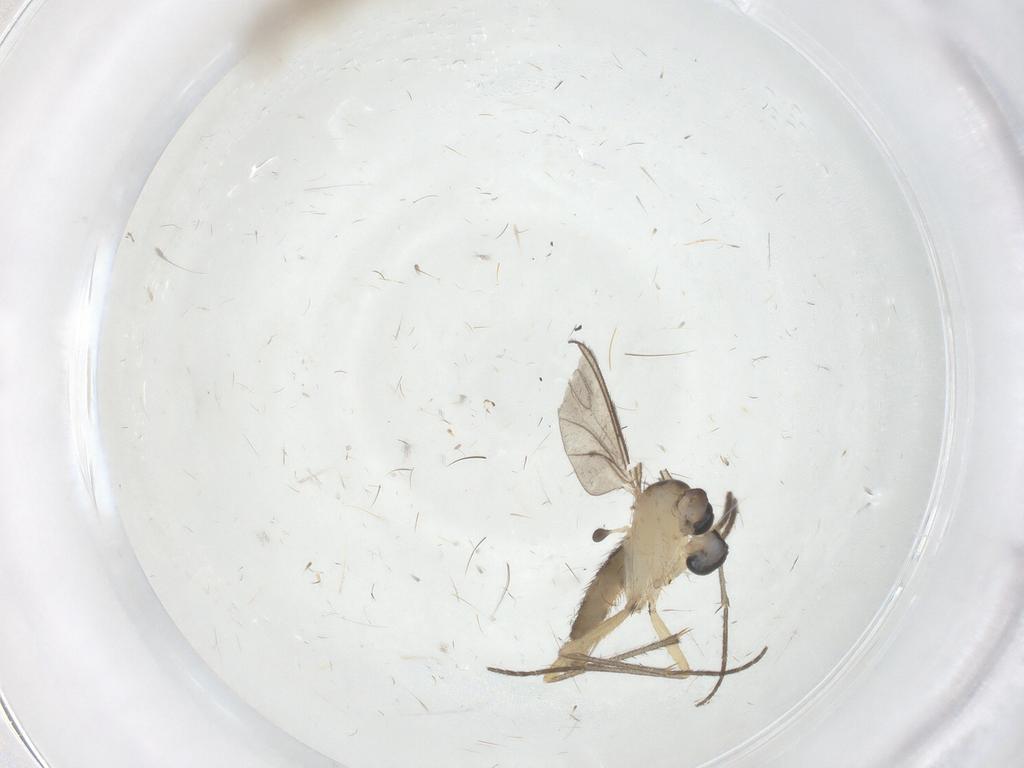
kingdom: Animalia
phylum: Arthropoda
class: Insecta
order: Diptera
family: Cecidomyiidae
